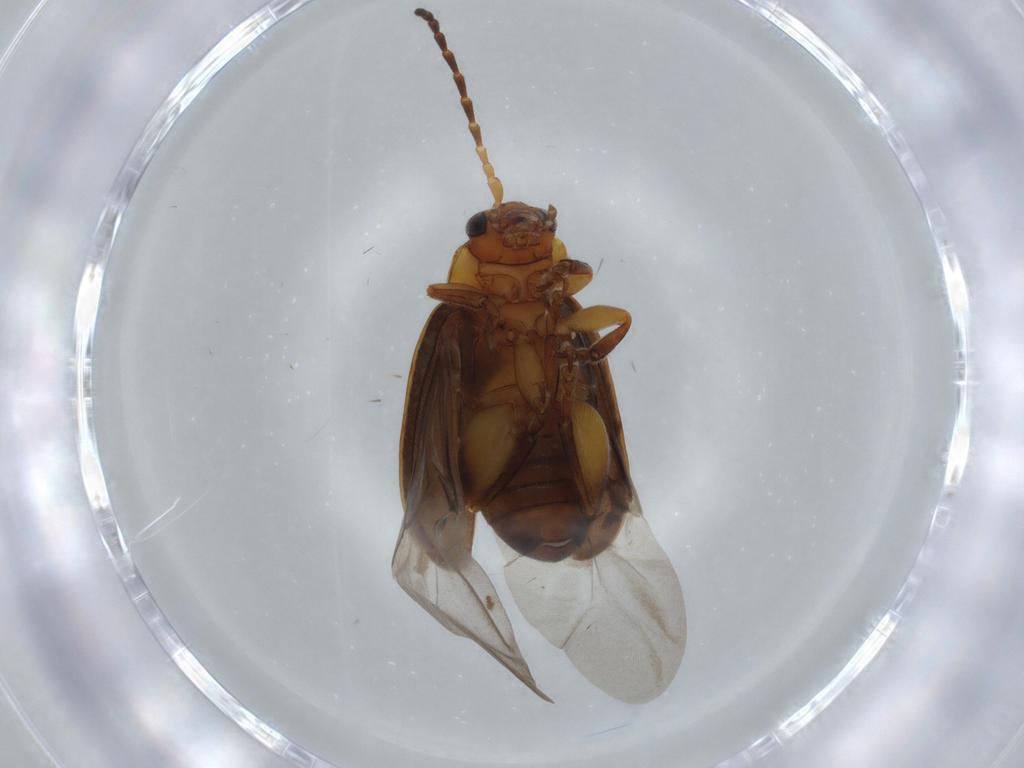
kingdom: Animalia
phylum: Arthropoda
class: Insecta
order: Coleoptera
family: Chrysomelidae
